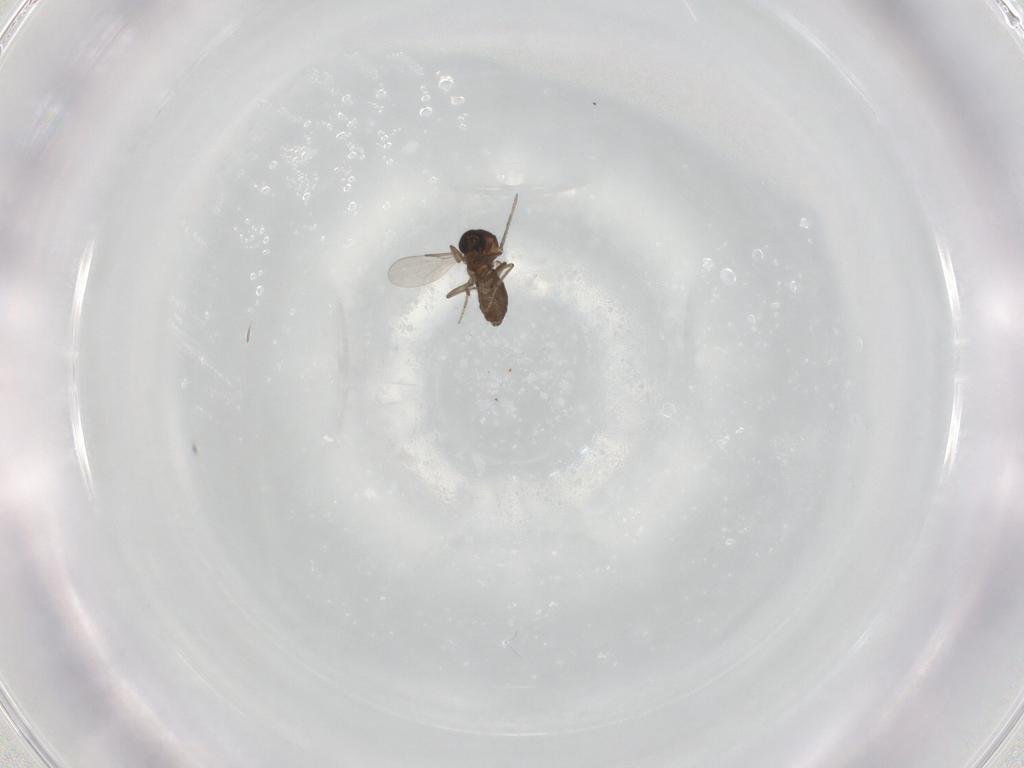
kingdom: Animalia
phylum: Arthropoda
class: Insecta
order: Diptera
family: Ceratopogonidae
